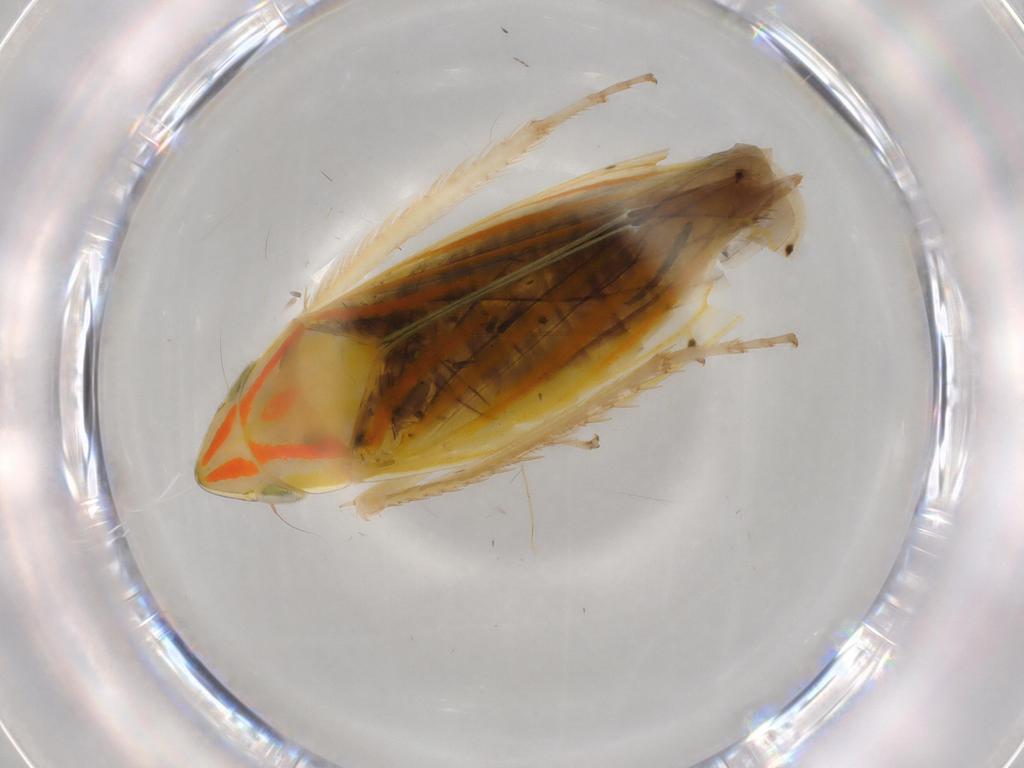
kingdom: Animalia
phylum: Arthropoda
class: Insecta
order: Hemiptera
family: Cicadellidae
